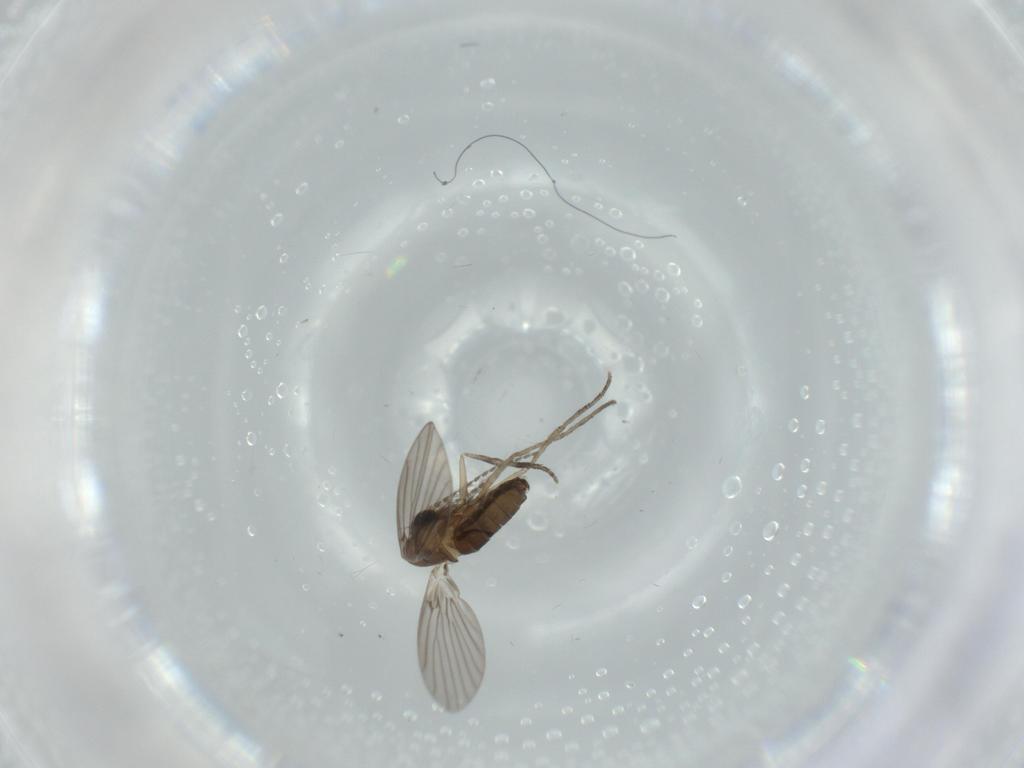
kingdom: Animalia
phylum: Arthropoda
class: Insecta
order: Diptera
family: Psychodidae
